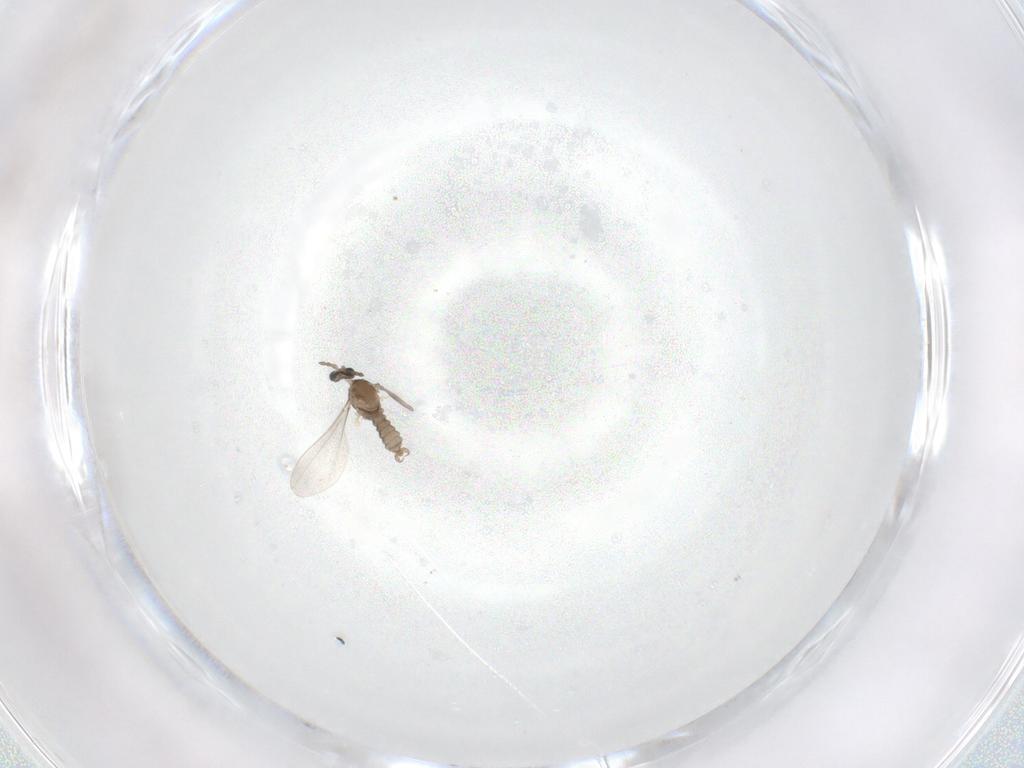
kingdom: Animalia
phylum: Arthropoda
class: Insecta
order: Diptera
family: Cecidomyiidae
